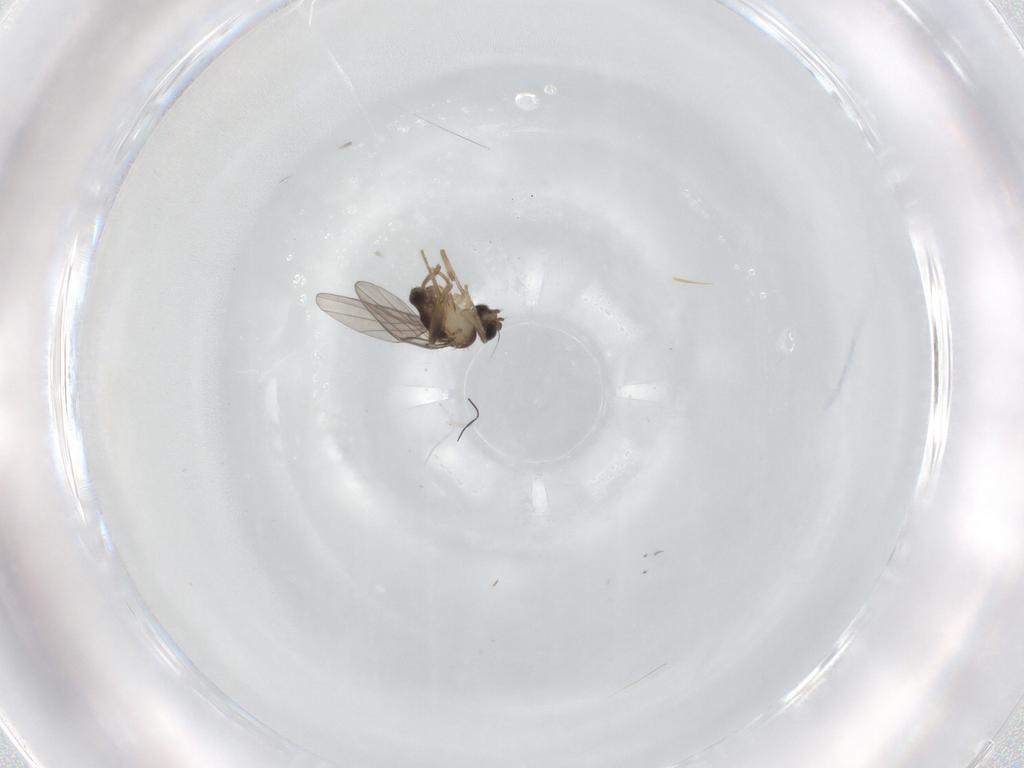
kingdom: Animalia
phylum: Arthropoda
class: Insecta
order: Diptera
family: Phoridae
